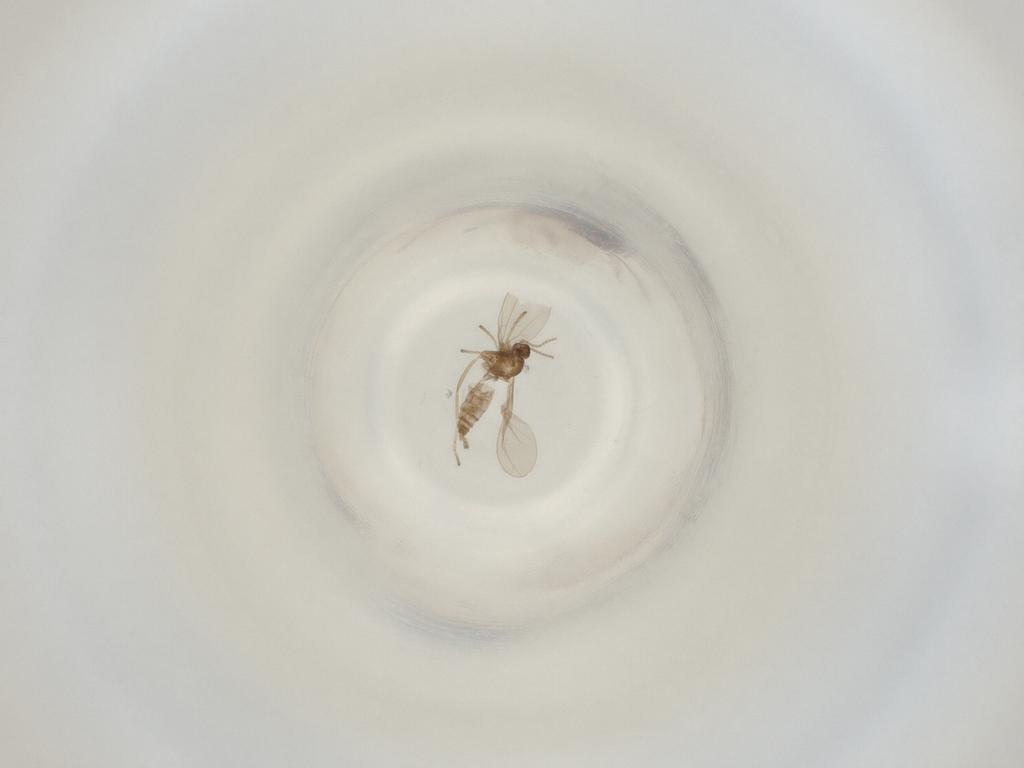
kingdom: Animalia
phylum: Arthropoda
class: Insecta
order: Diptera
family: Cecidomyiidae
